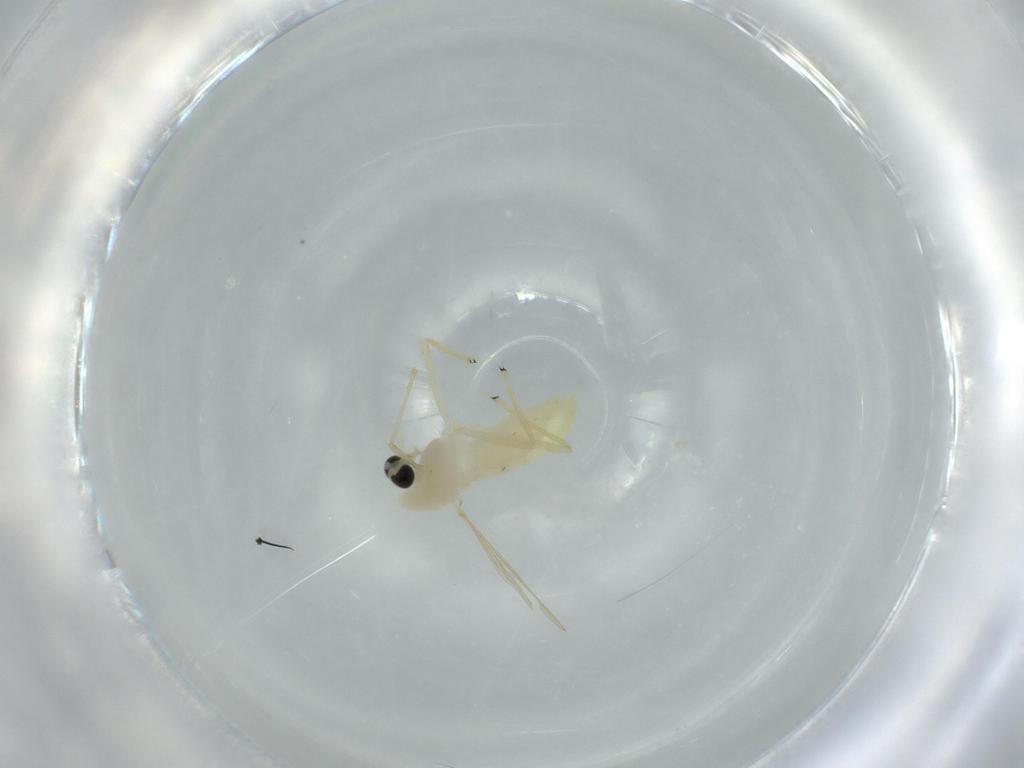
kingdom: Animalia
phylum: Arthropoda
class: Insecta
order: Diptera
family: Chironomidae
